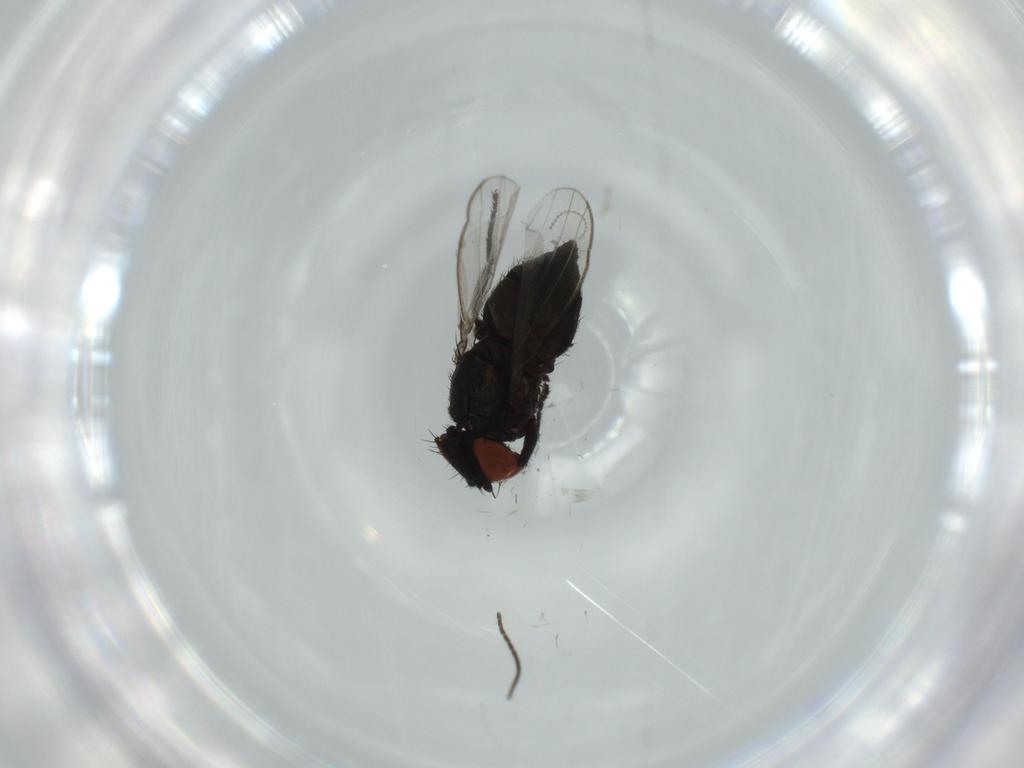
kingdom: Animalia
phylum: Arthropoda
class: Insecta
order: Diptera
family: Milichiidae
